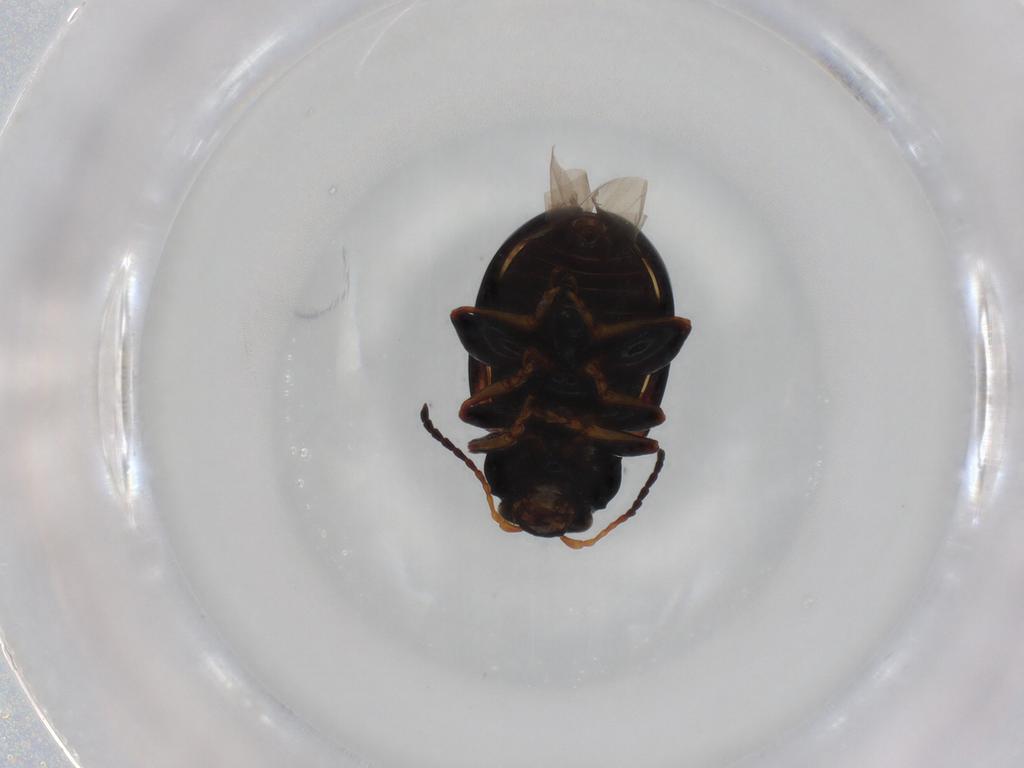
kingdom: Animalia
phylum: Arthropoda
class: Insecta
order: Coleoptera
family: Chrysomelidae
